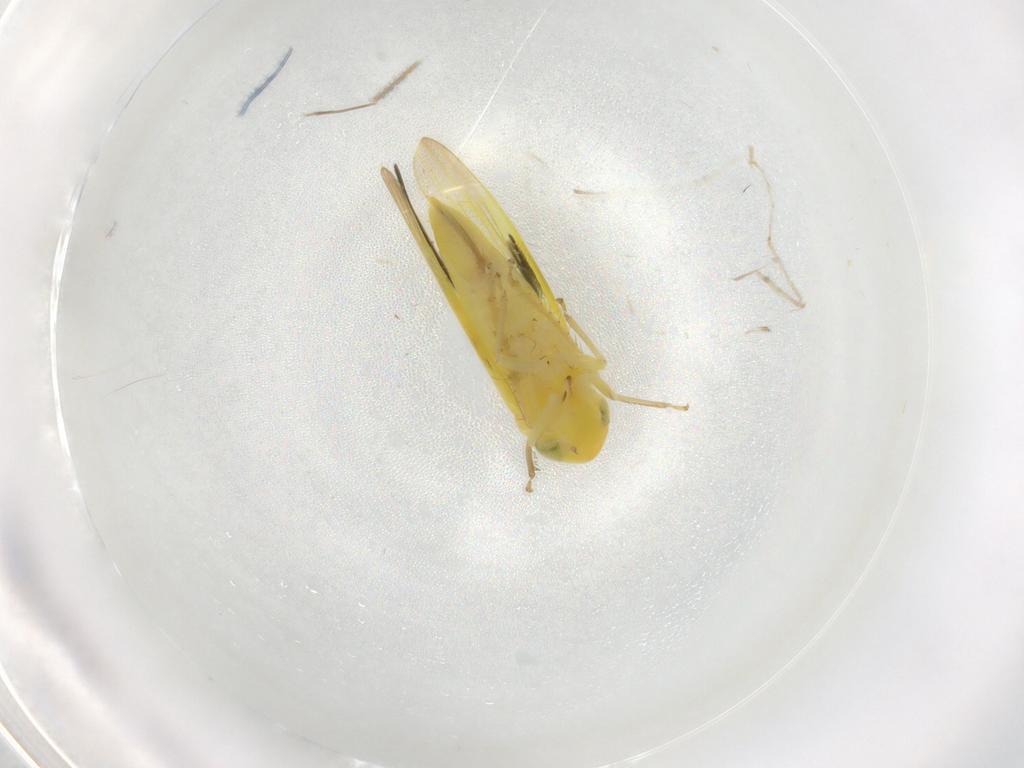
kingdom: Animalia
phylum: Arthropoda
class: Insecta
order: Hemiptera
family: Cicadellidae
